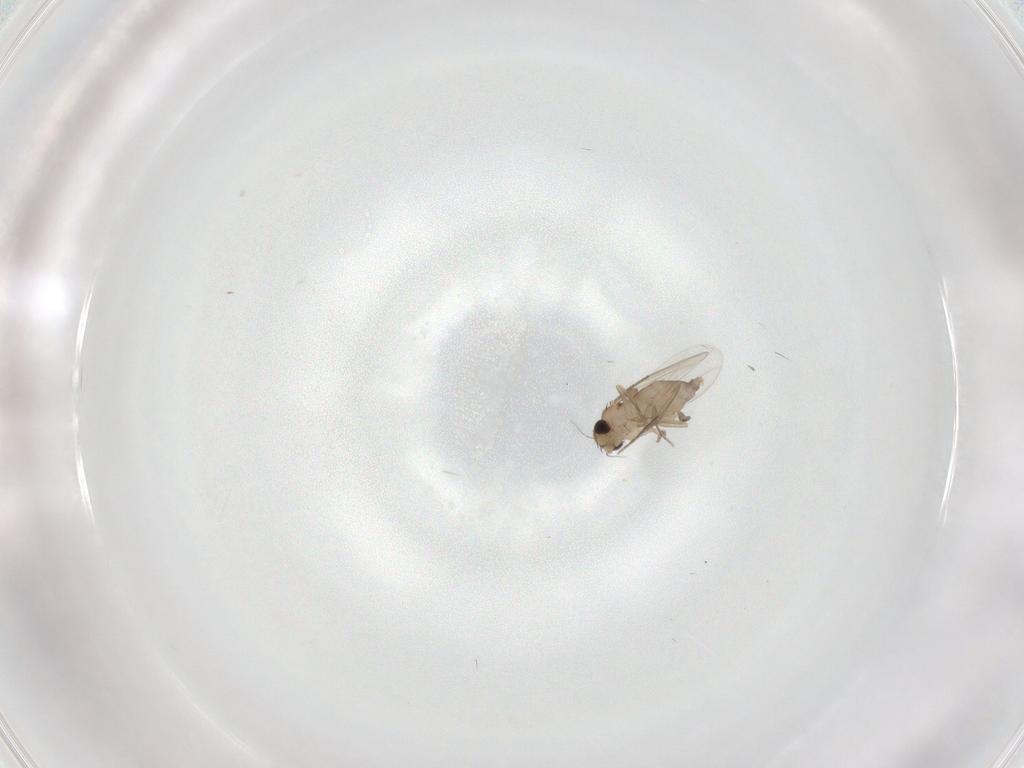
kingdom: Animalia
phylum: Arthropoda
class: Insecta
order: Diptera
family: Phoridae
